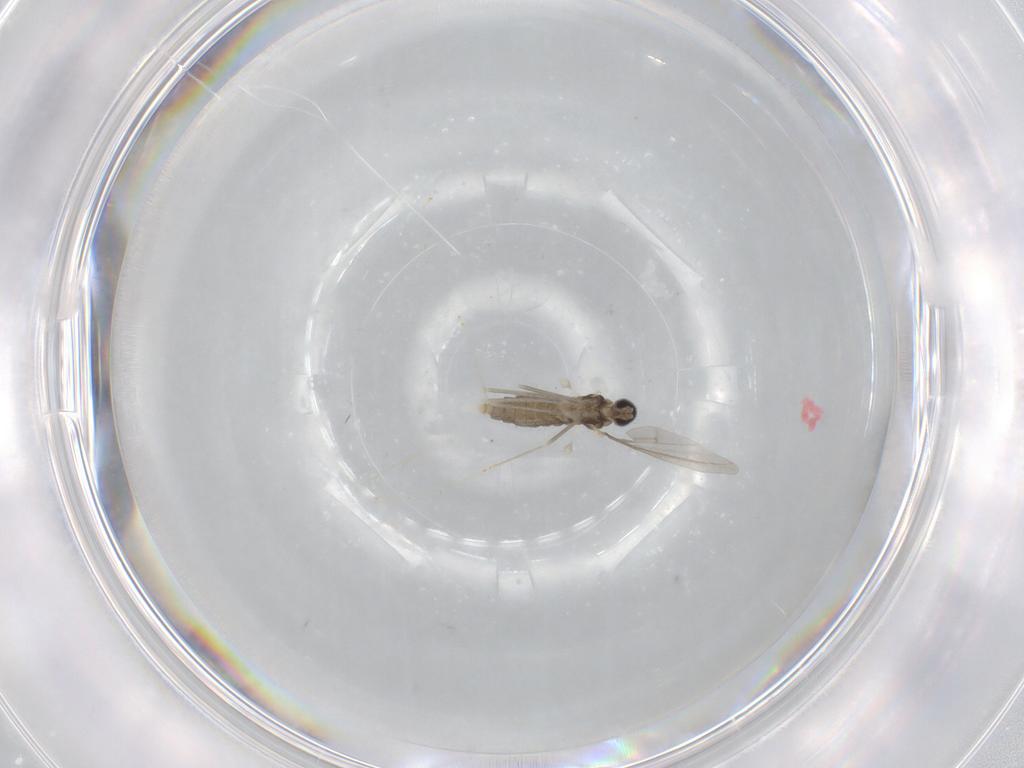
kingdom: Animalia
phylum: Arthropoda
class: Insecta
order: Diptera
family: Cecidomyiidae
